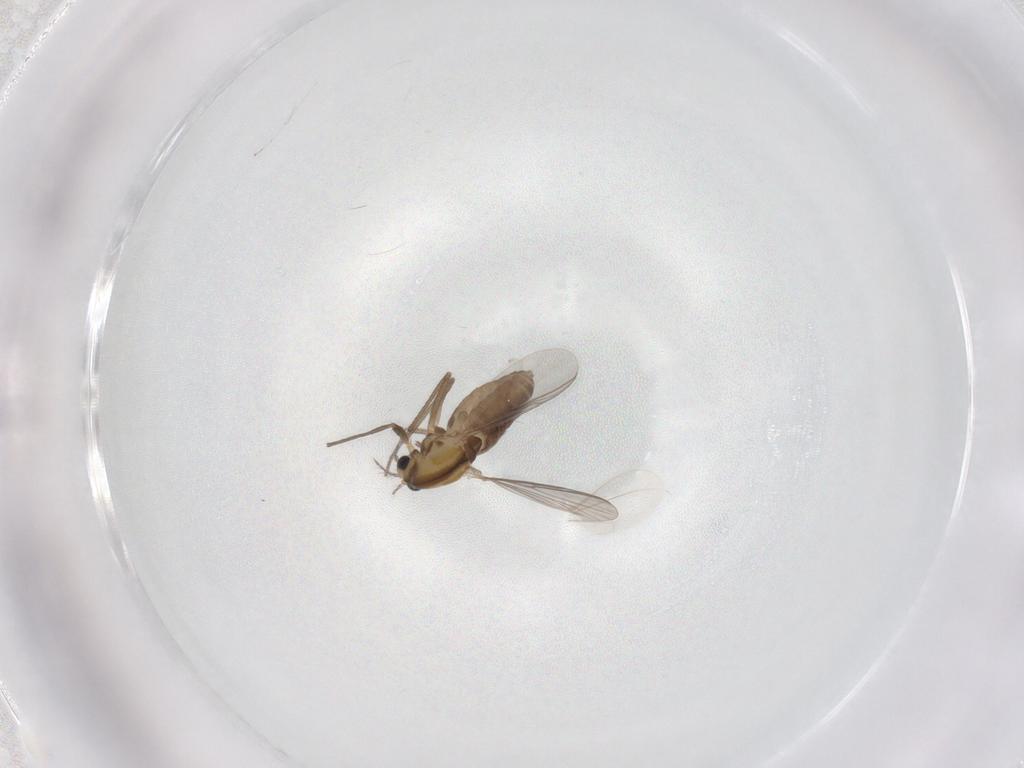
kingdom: Animalia
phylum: Arthropoda
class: Insecta
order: Diptera
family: Chironomidae
